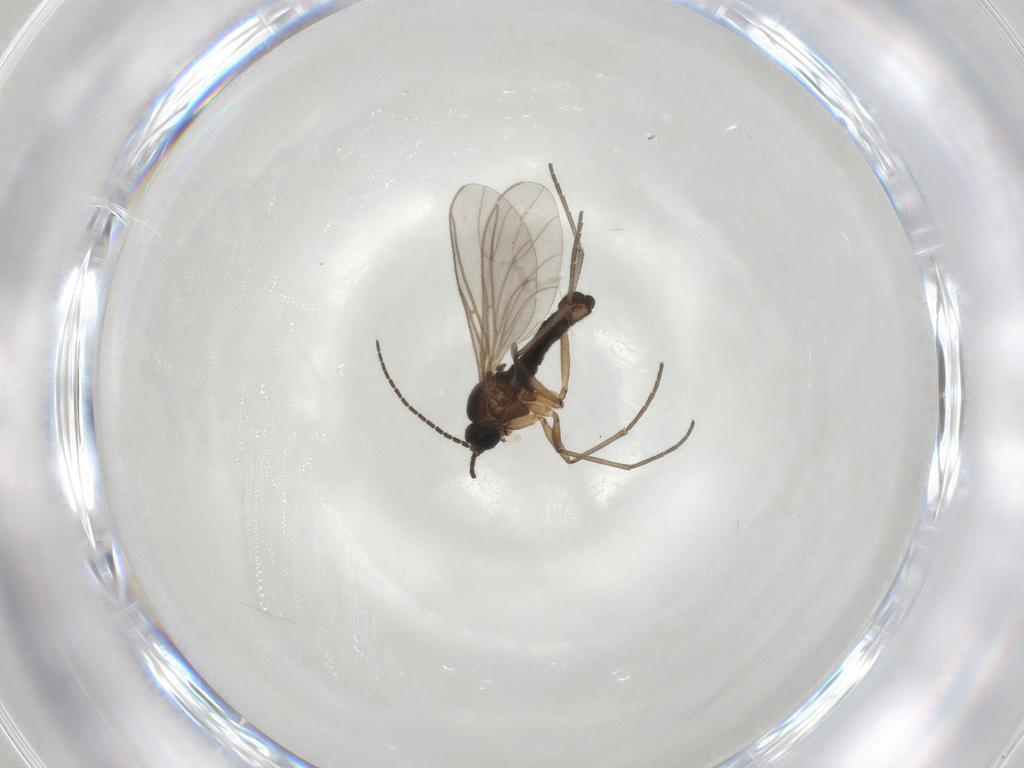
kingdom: Animalia
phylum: Arthropoda
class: Insecta
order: Diptera
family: Sciaridae
